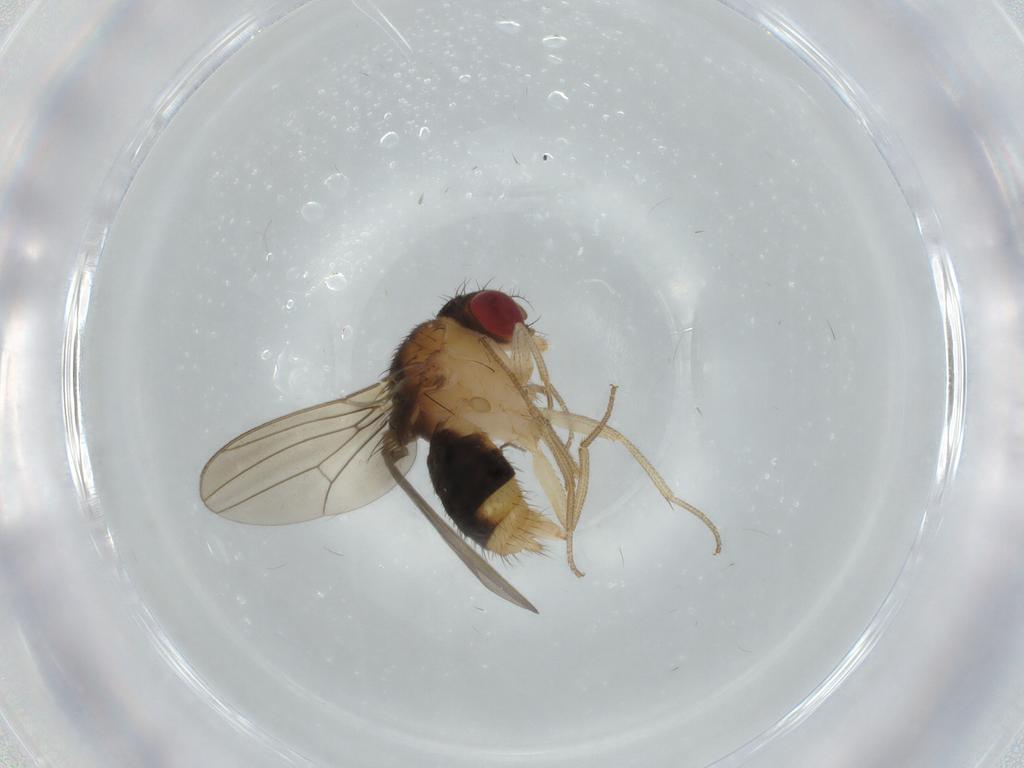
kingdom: Animalia
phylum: Arthropoda
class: Insecta
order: Diptera
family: Drosophilidae
